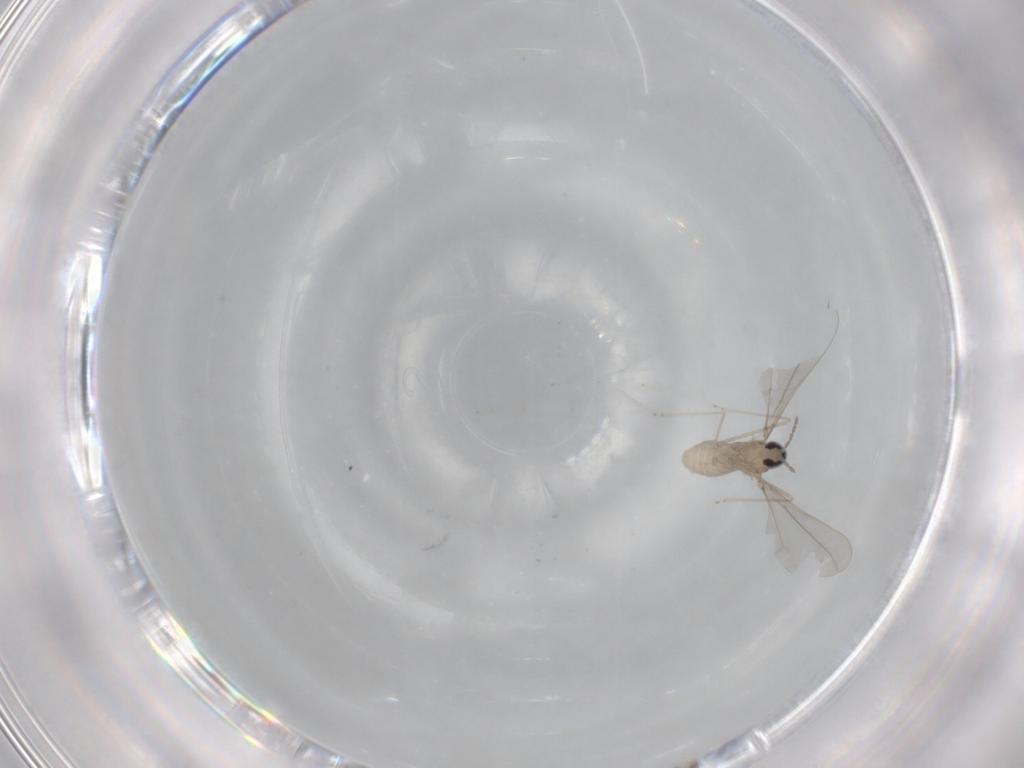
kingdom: Animalia
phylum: Arthropoda
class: Insecta
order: Diptera
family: Cecidomyiidae
